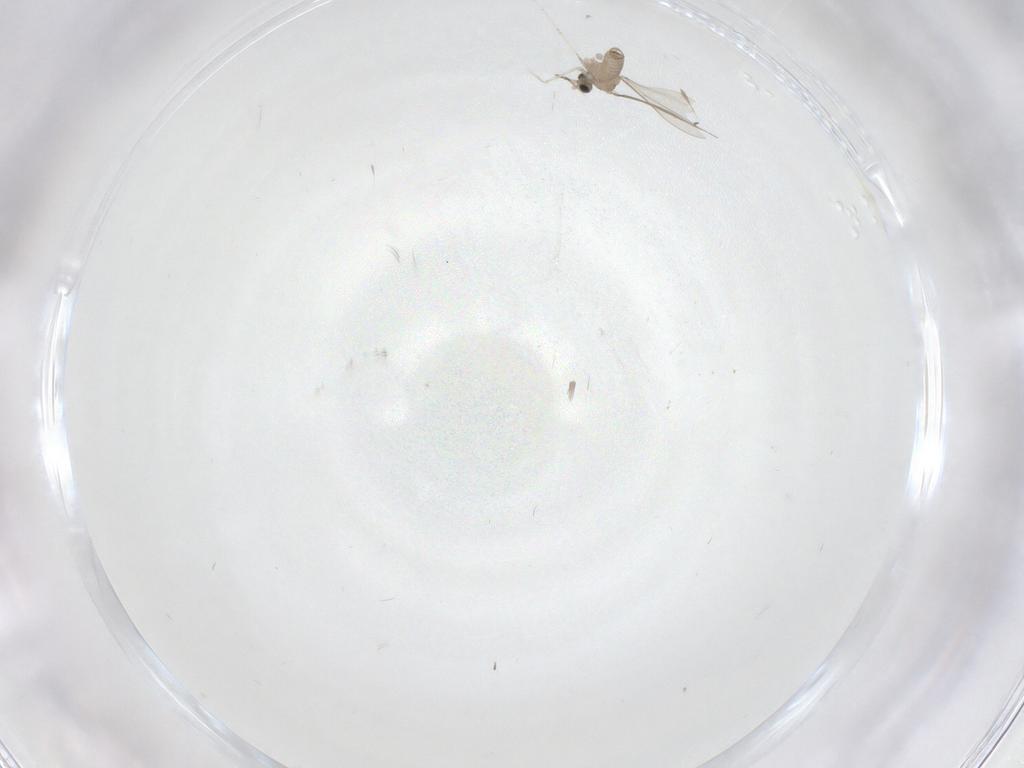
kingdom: Animalia
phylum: Arthropoda
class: Insecta
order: Diptera
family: Cecidomyiidae
